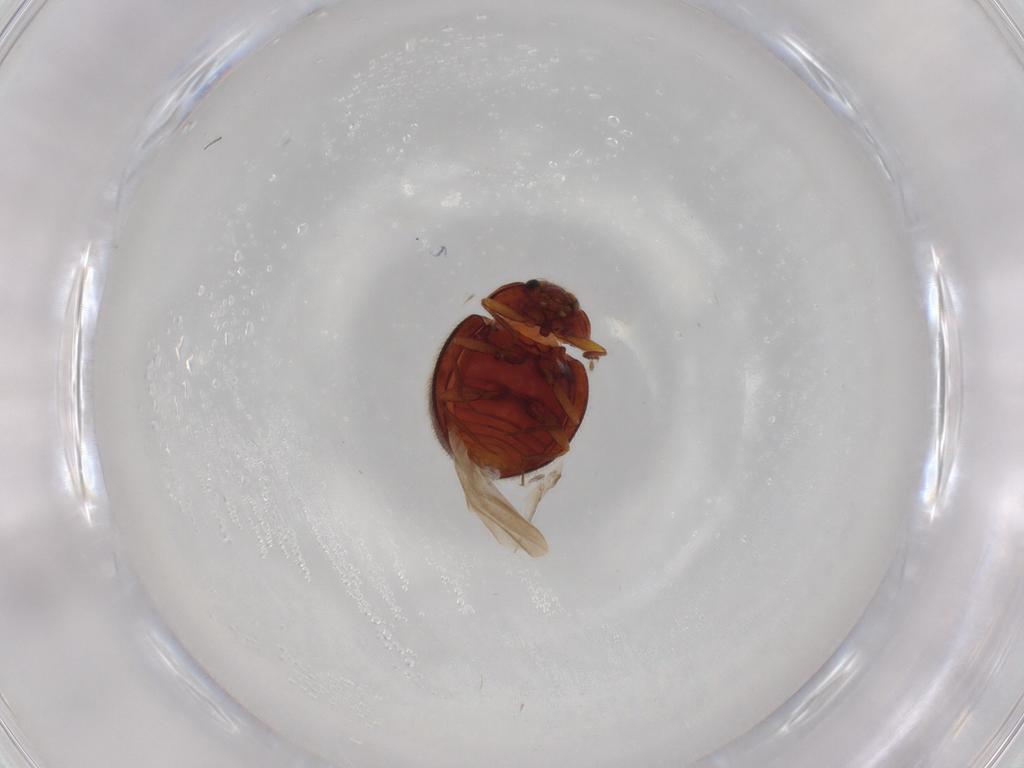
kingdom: Animalia
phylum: Arthropoda
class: Insecta
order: Coleoptera
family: Anamorphidae
